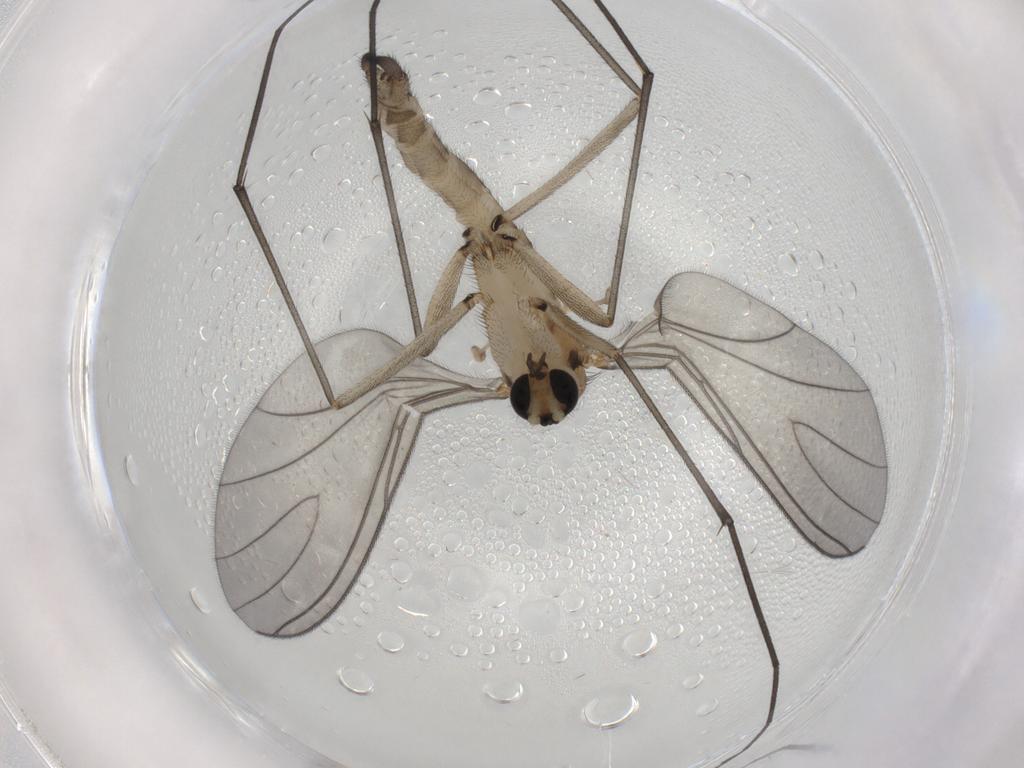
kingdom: Animalia
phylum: Arthropoda
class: Insecta
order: Diptera
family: Sciaridae
